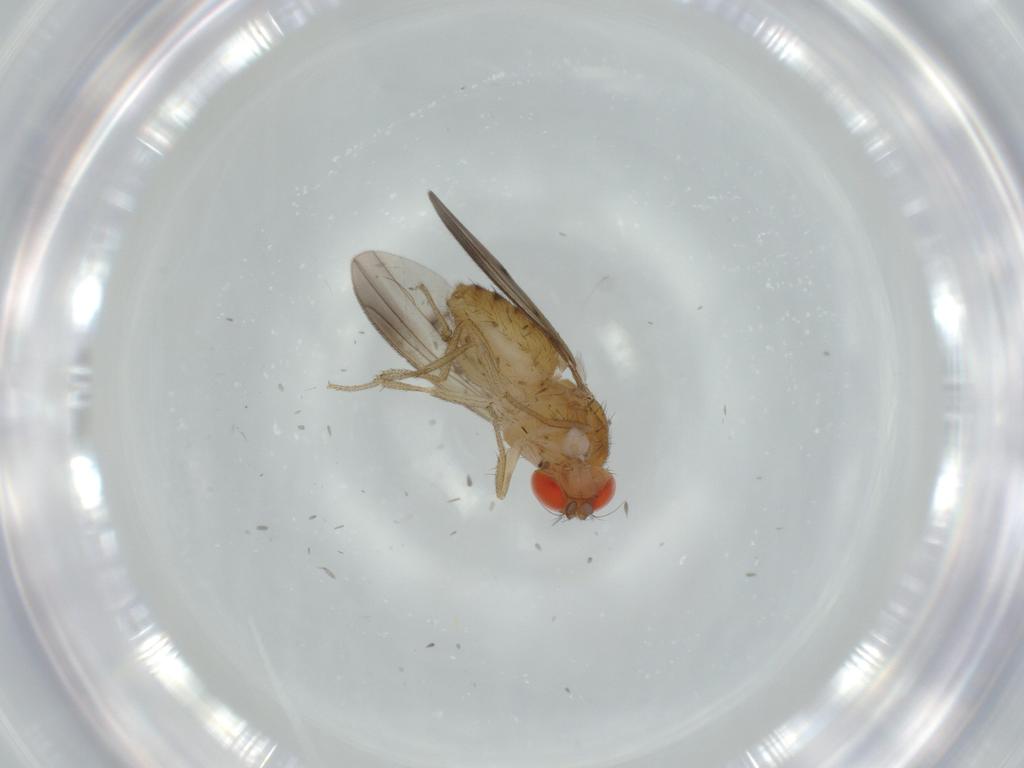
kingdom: Animalia
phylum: Arthropoda
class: Insecta
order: Diptera
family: Drosophilidae
